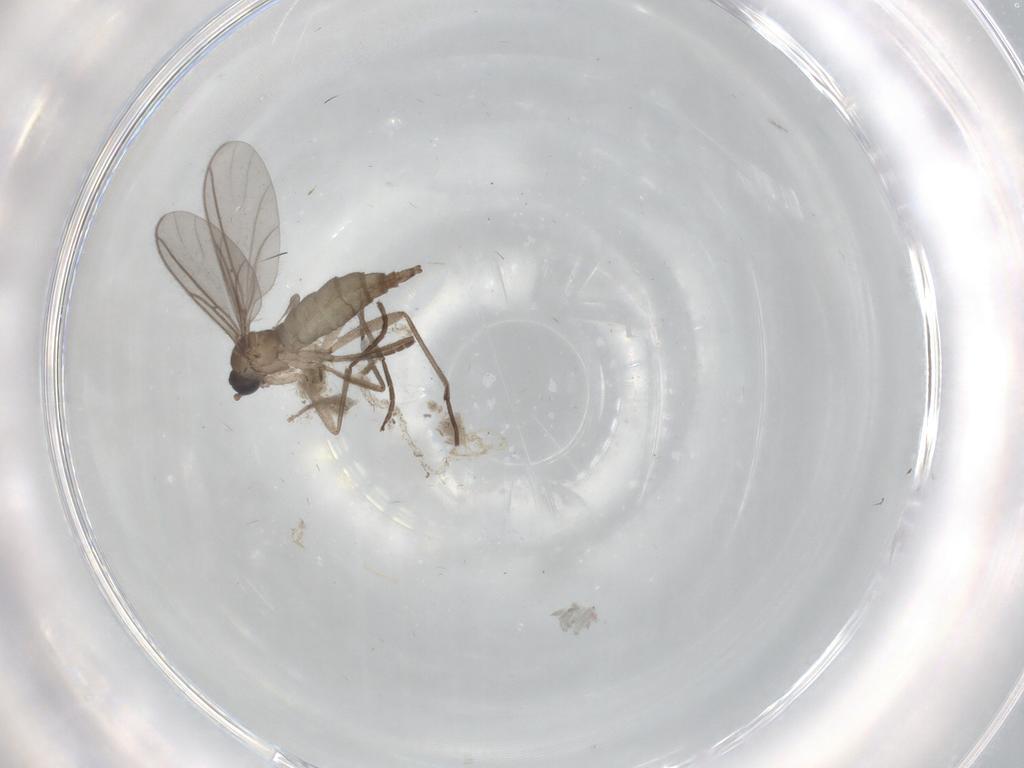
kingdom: Animalia
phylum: Arthropoda
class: Insecta
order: Diptera
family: Sciaridae
